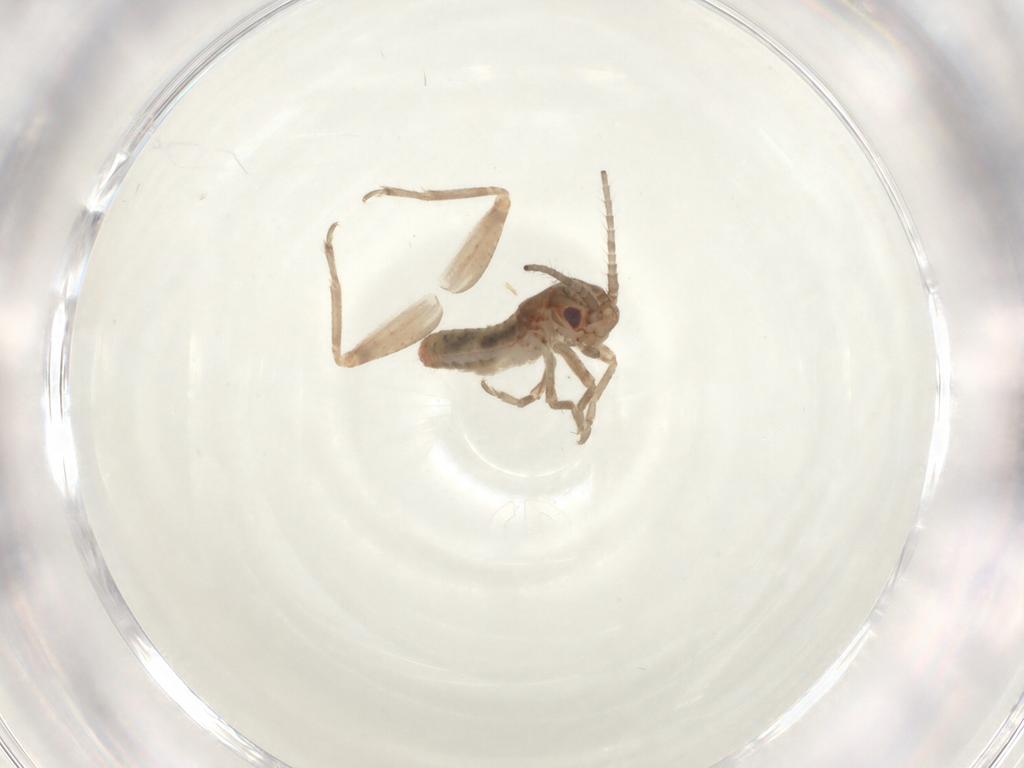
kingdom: Animalia
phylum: Arthropoda
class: Insecta
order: Orthoptera
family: Mogoplistidae
